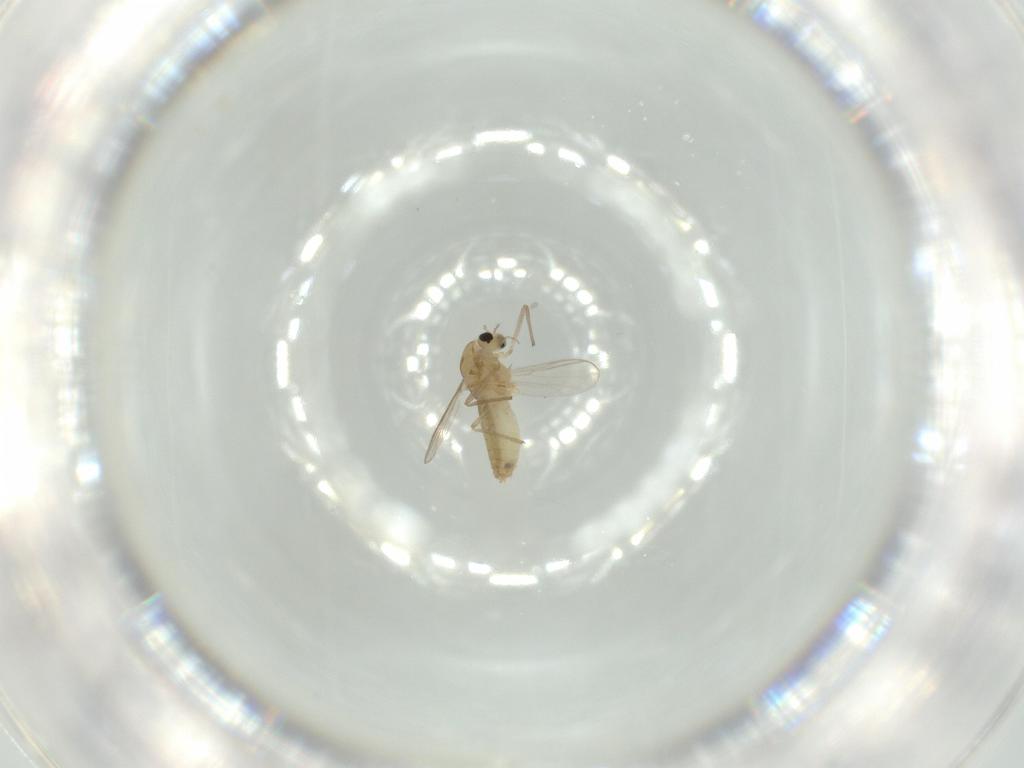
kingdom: Animalia
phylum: Arthropoda
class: Insecta
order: Diptera
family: Chironomidae
